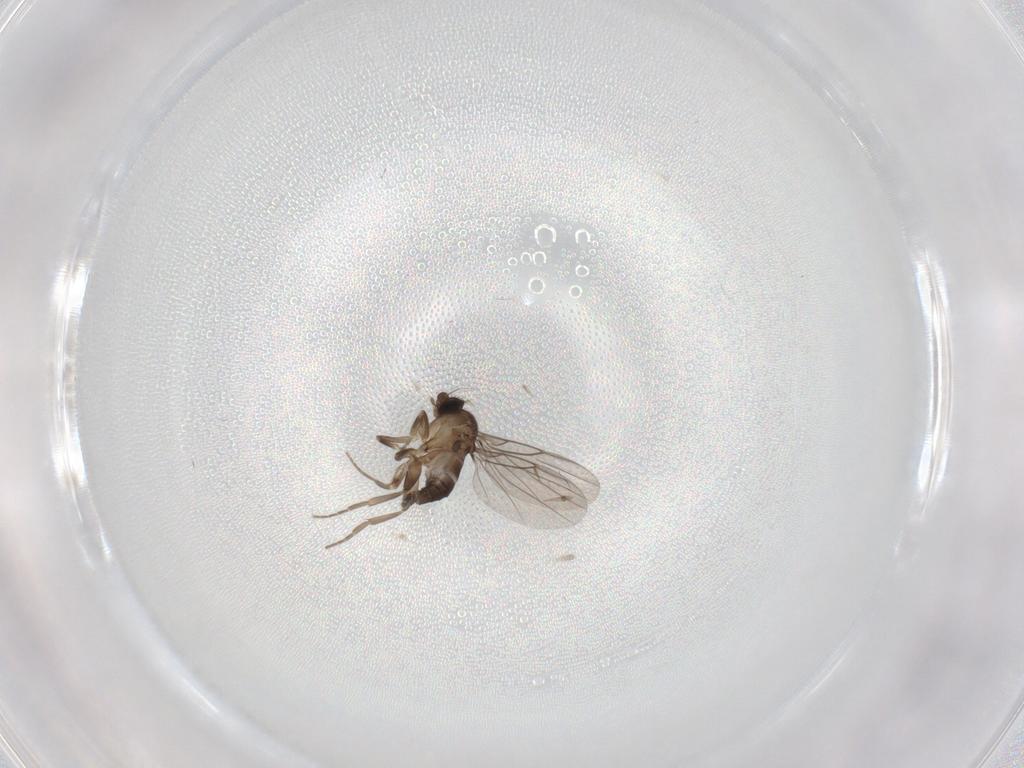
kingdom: Animalia
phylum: Arthropoda
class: Insecta
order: Diptera
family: Cecidomyiidae
